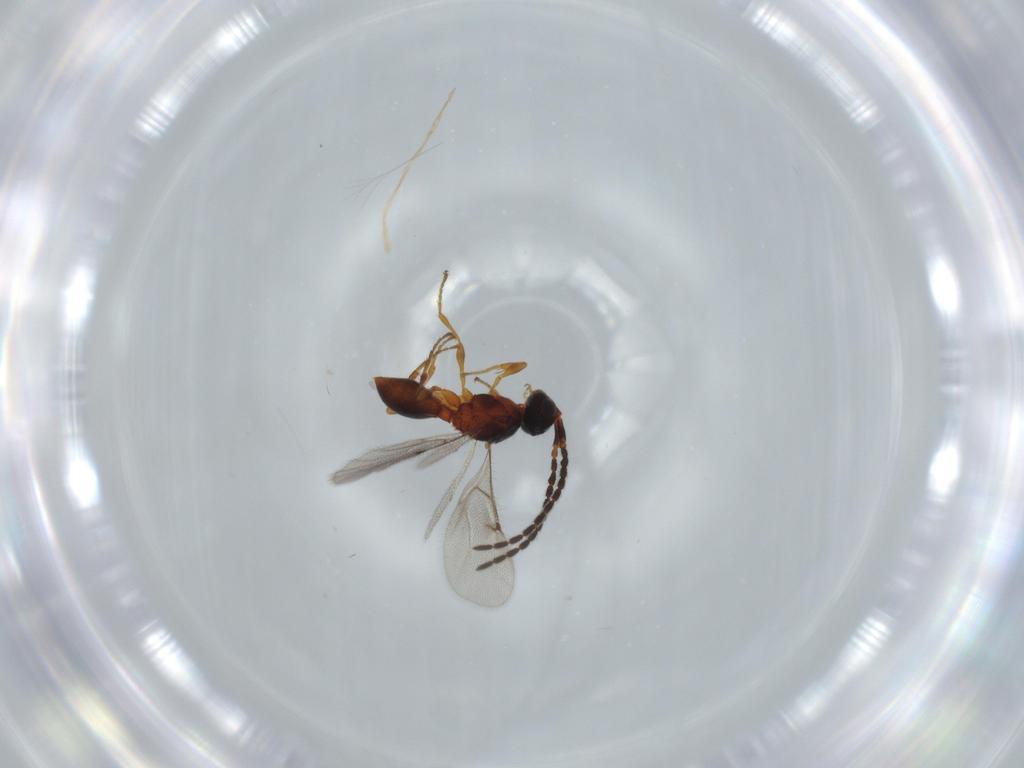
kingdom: Animalia
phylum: Arthropoda
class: Insecta
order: Hymenoptera
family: Mymaridae
